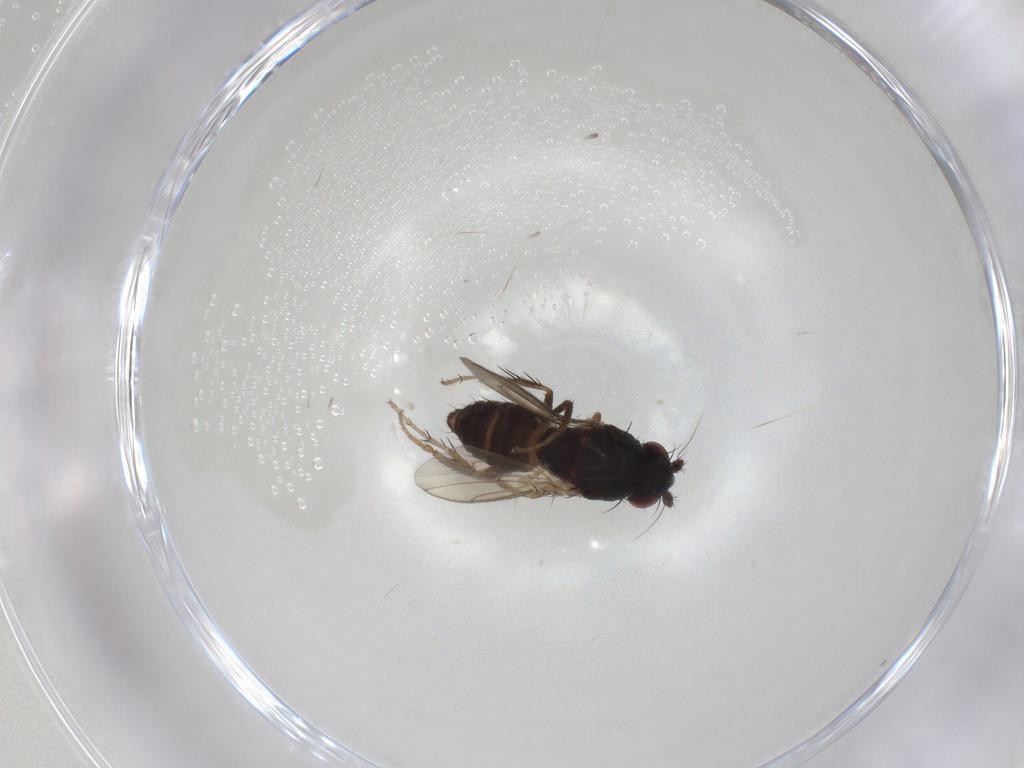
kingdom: Animalia
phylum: Arthropoda
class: Insecta
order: Diptera
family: Sphaeroceridae
